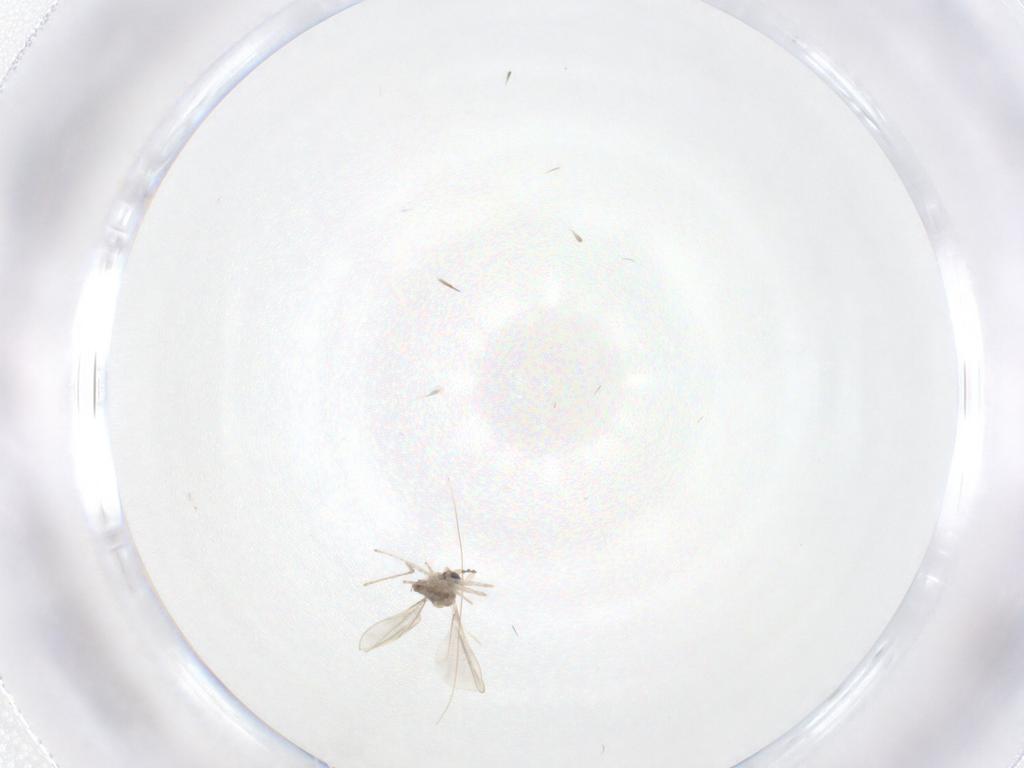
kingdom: Animalia
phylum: Arthropoda
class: Insecta
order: Diptera
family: Cecidomyiidae
